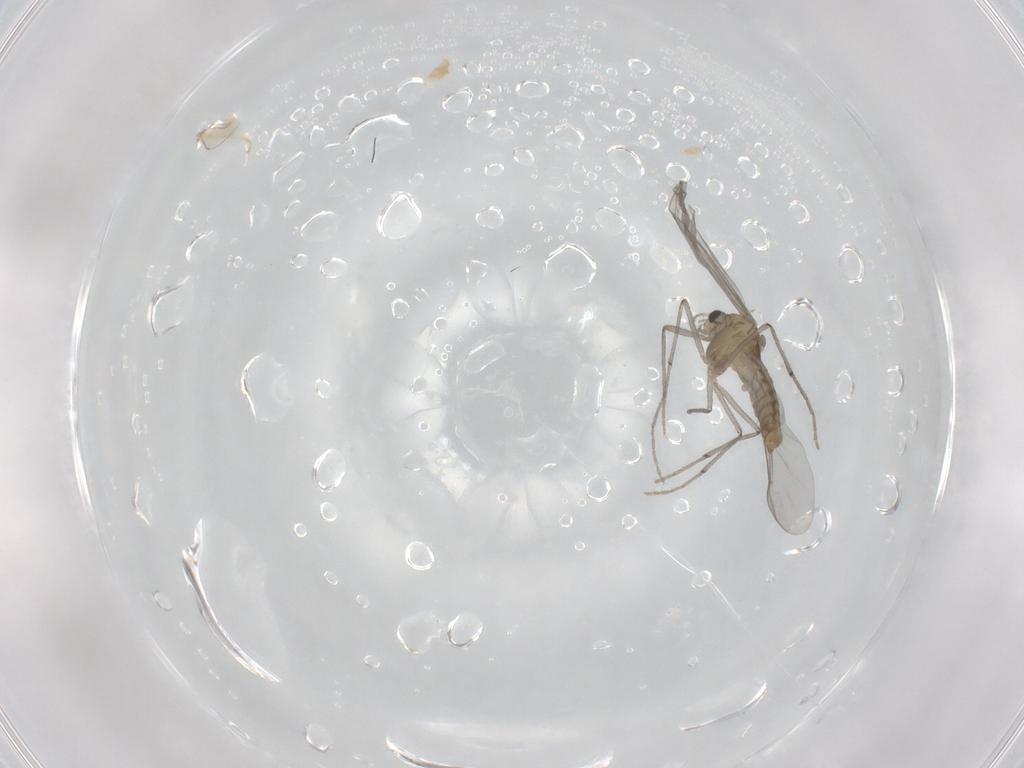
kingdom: Animalia
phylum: Arthropoda
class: Insecta
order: Diptera
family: Chironomidae
